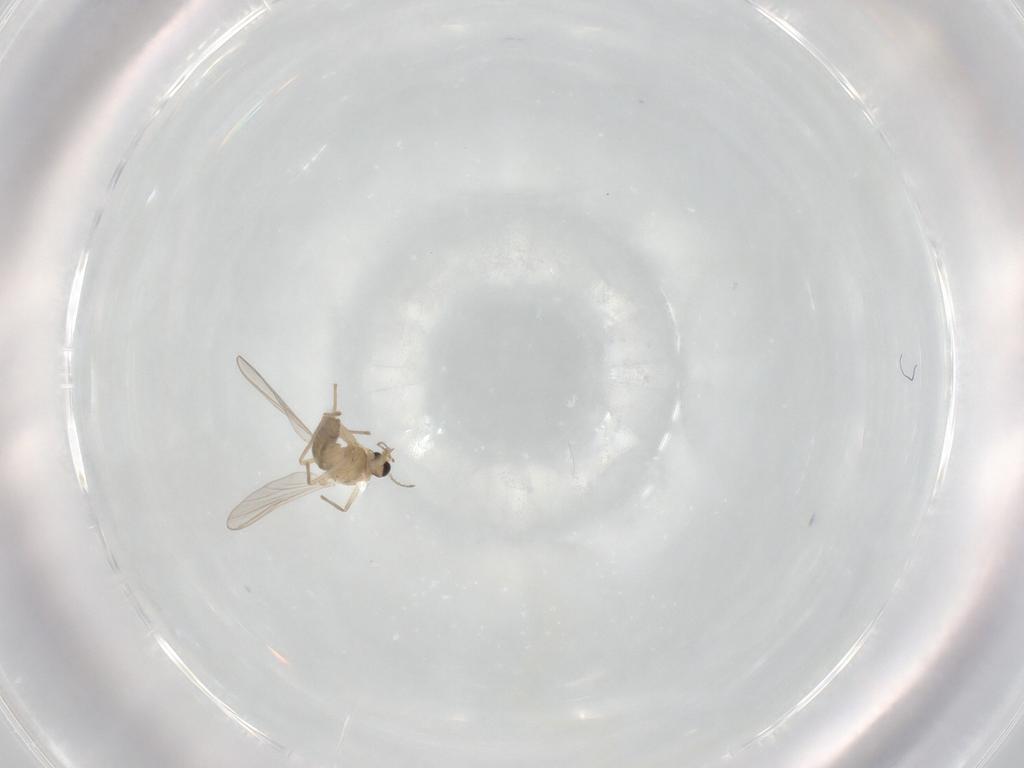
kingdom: Animalia
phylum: Arthropoda
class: Insecta
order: Diptera
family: Chironomidae
